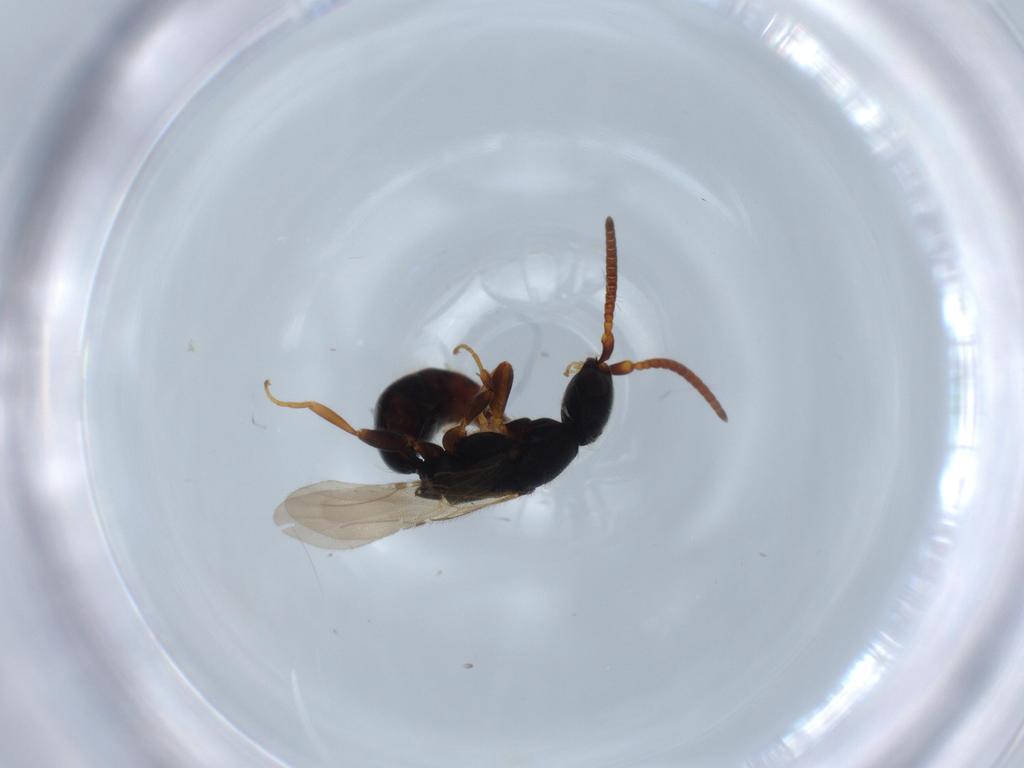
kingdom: Animalia
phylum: Arthropoda
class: Insecta
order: Hymenoptera
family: Bethylidae
